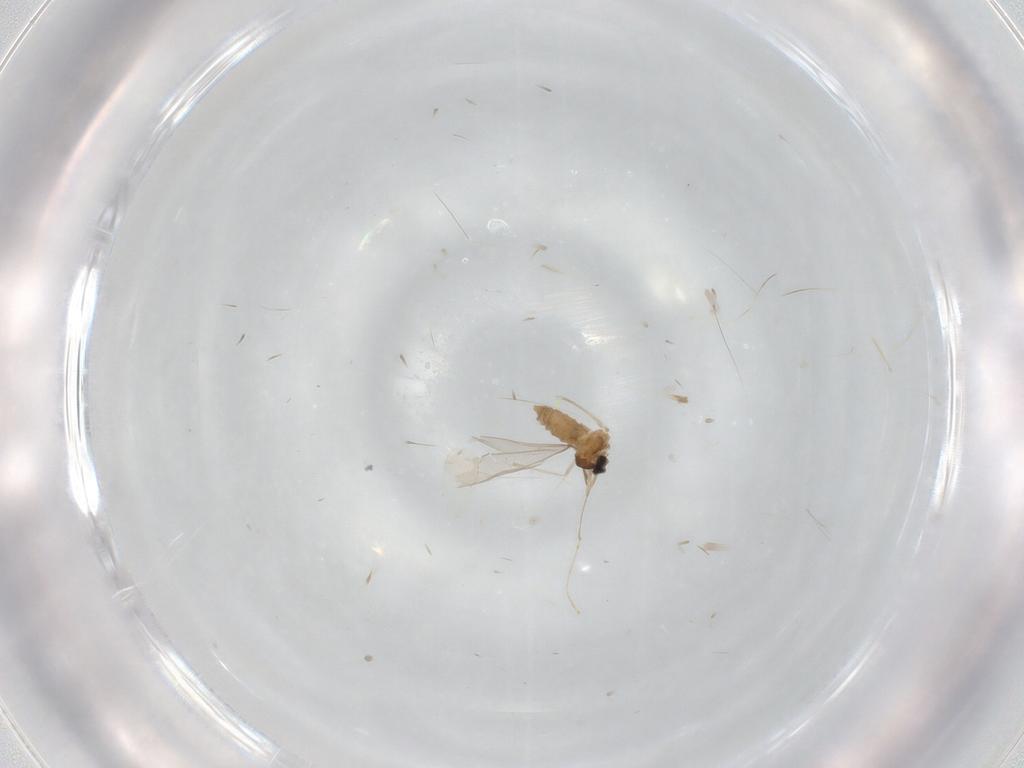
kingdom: Animalia
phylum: Arthropoda
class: Insecta
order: Diptera
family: Cecidomyiidae
